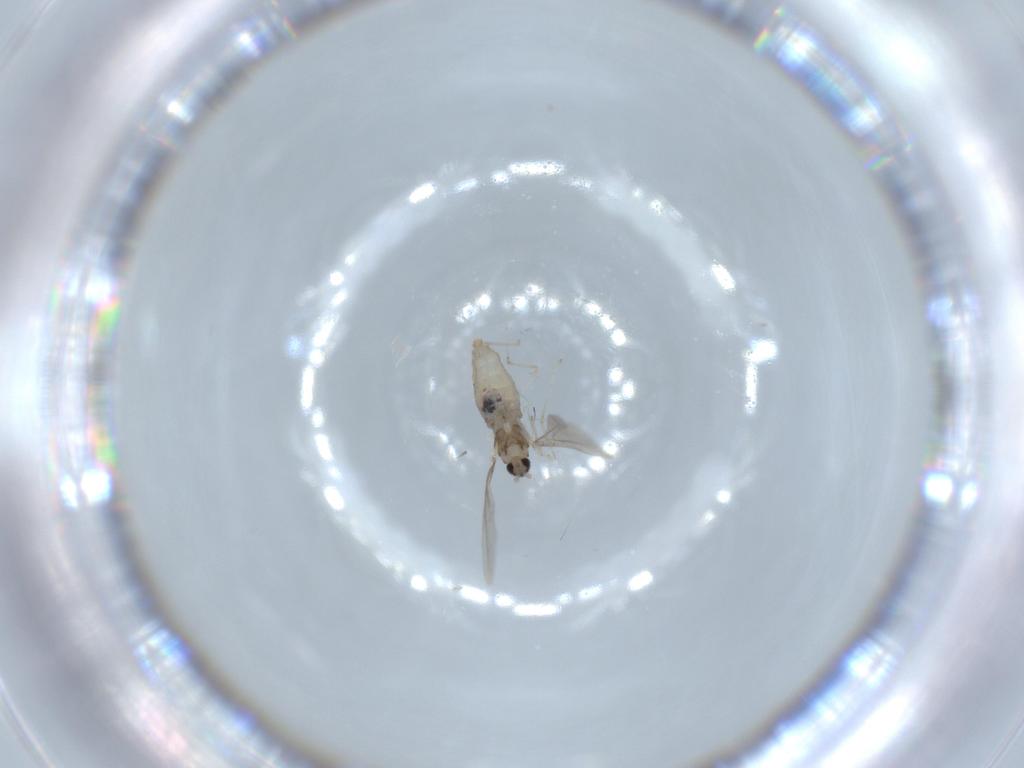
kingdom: Animalia
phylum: Arthropoda
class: Insecta
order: Diptera
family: Cecidomyiidae
